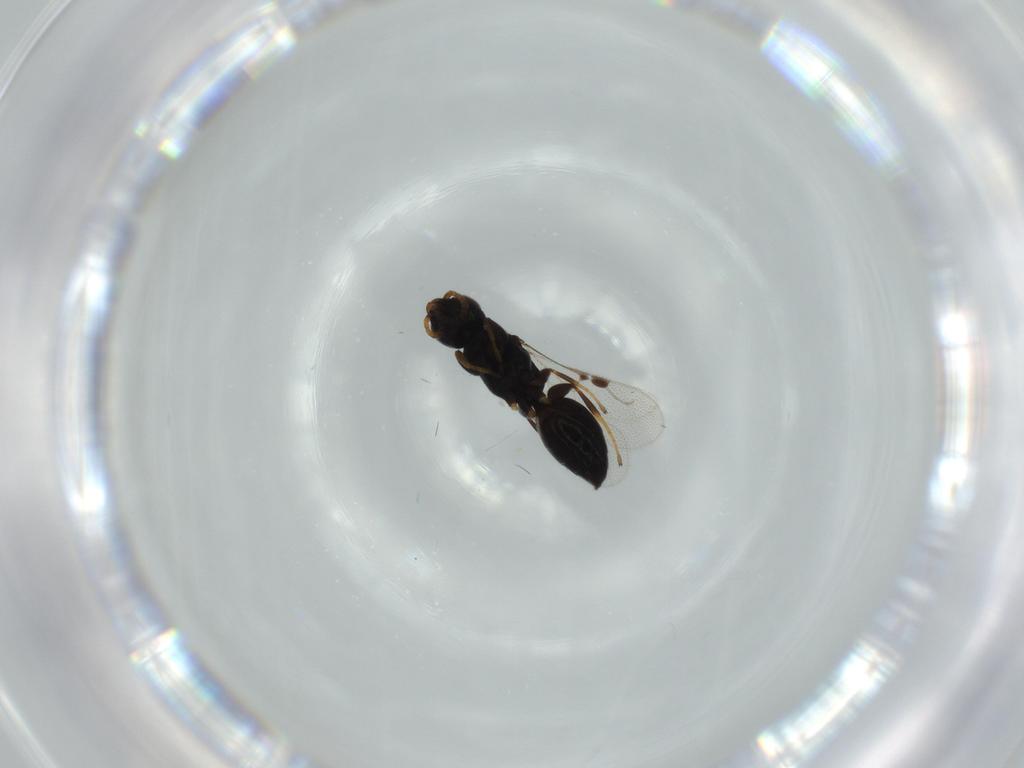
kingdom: Animalia
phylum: Arthropoda
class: Insecta
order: Hymenoptera
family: Bethylidae
